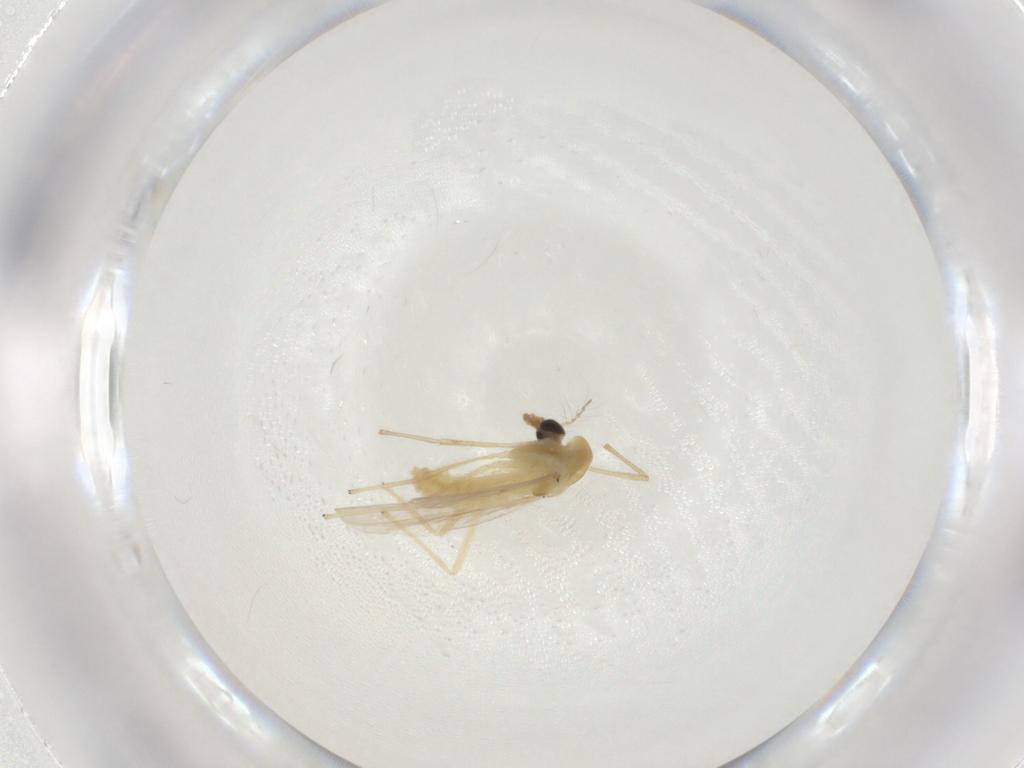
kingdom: Animalia
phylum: Arthropoda
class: Insecta
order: Diptera
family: Chironomidae
